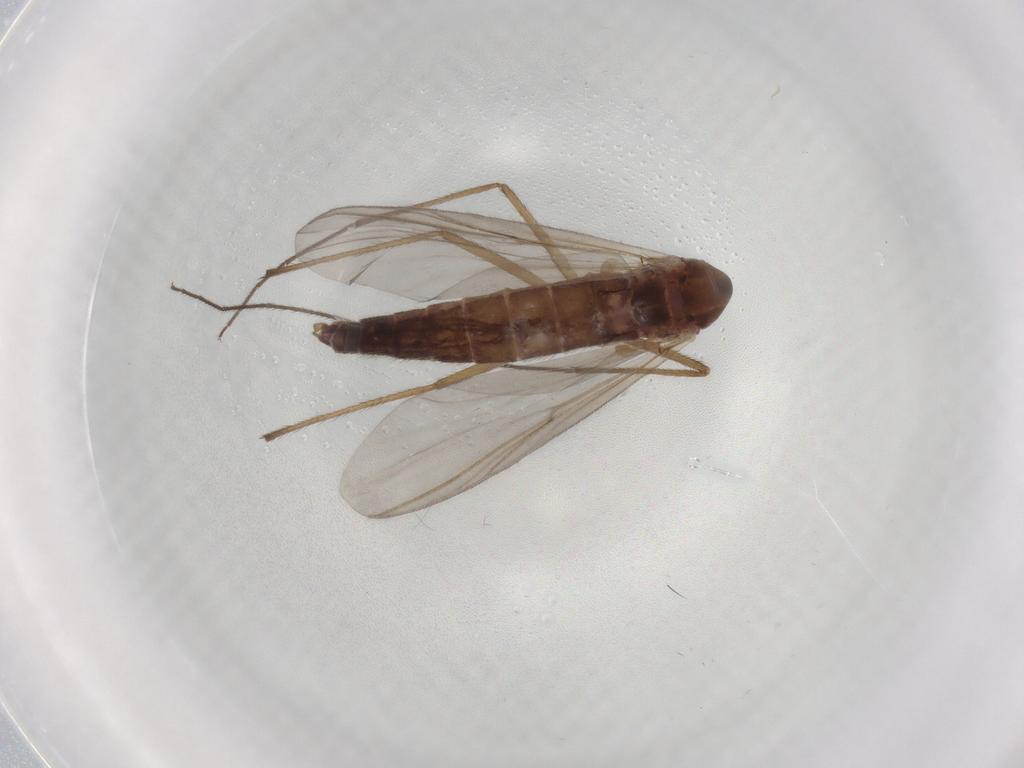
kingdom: Animalia
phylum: Arthropoda
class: Insecta
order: Diptera
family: Chironomidae
